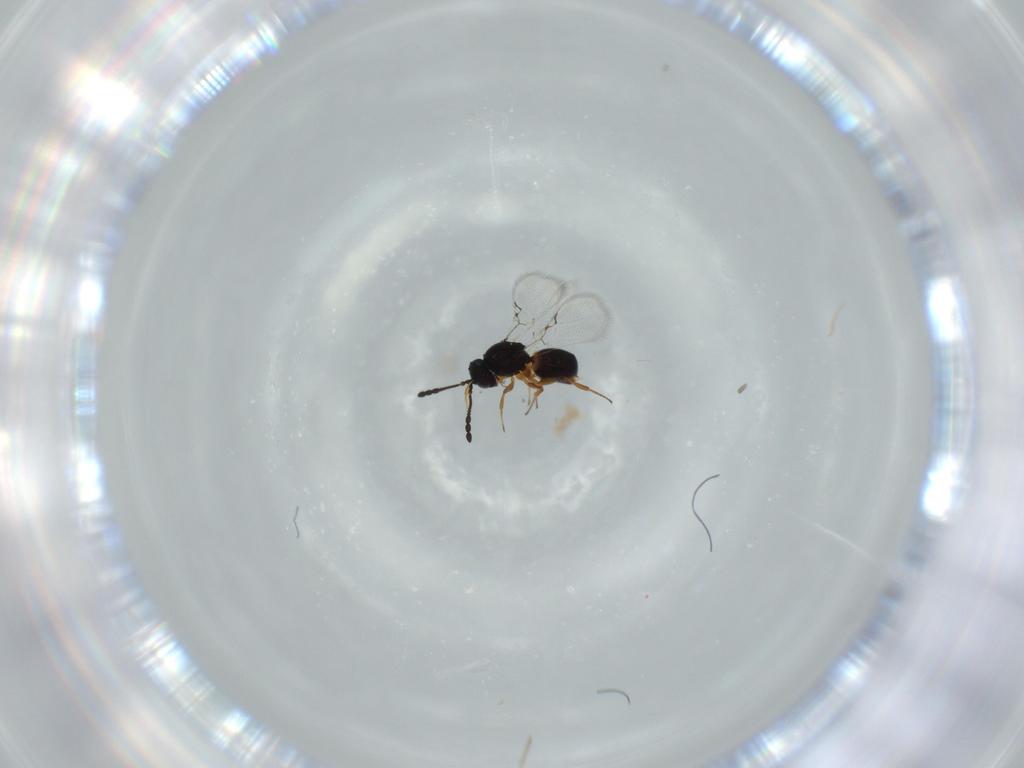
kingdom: Animalia
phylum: Arthropoda
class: Insecta
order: Hymenoptera
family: Figitidae
